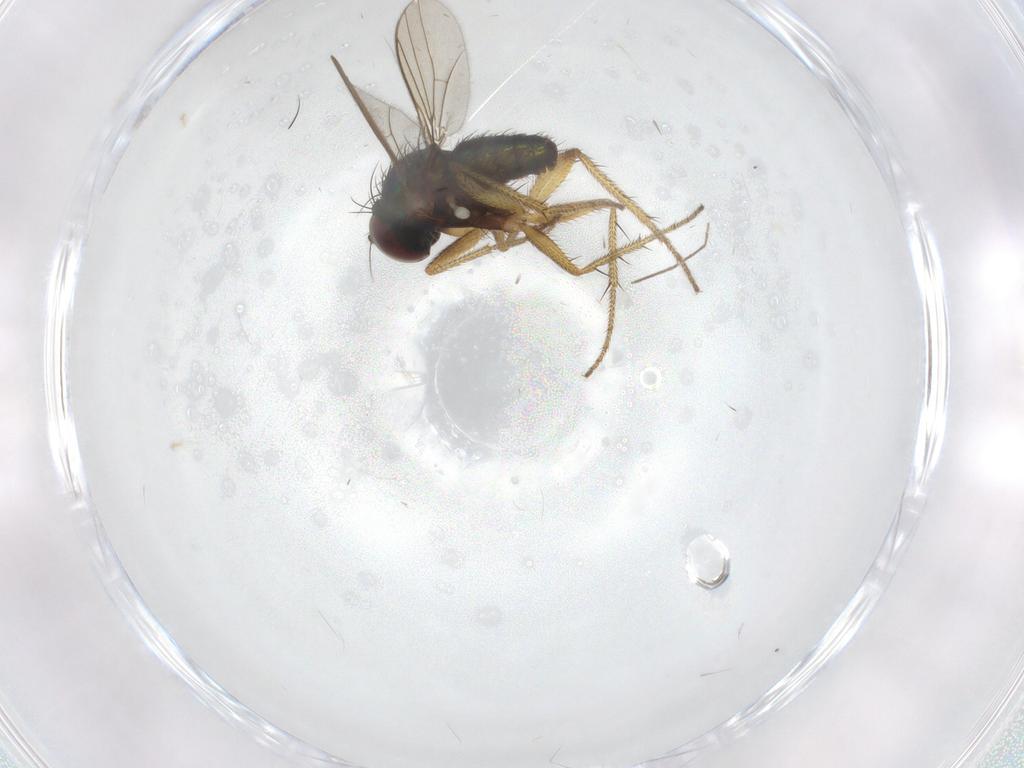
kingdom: Animalia
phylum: Arthropoda
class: Insecta
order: Diptera
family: Dolichopodidae
